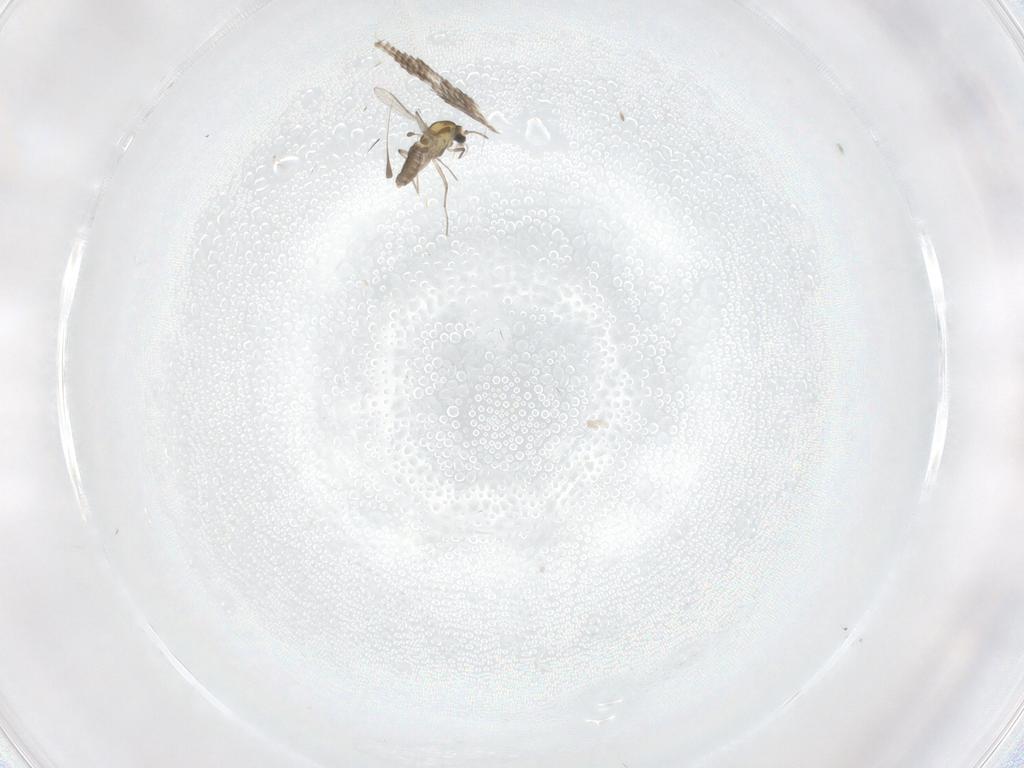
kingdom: Animalia
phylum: Arthropoda
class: Insecta
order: Diptera
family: Chironomidae
